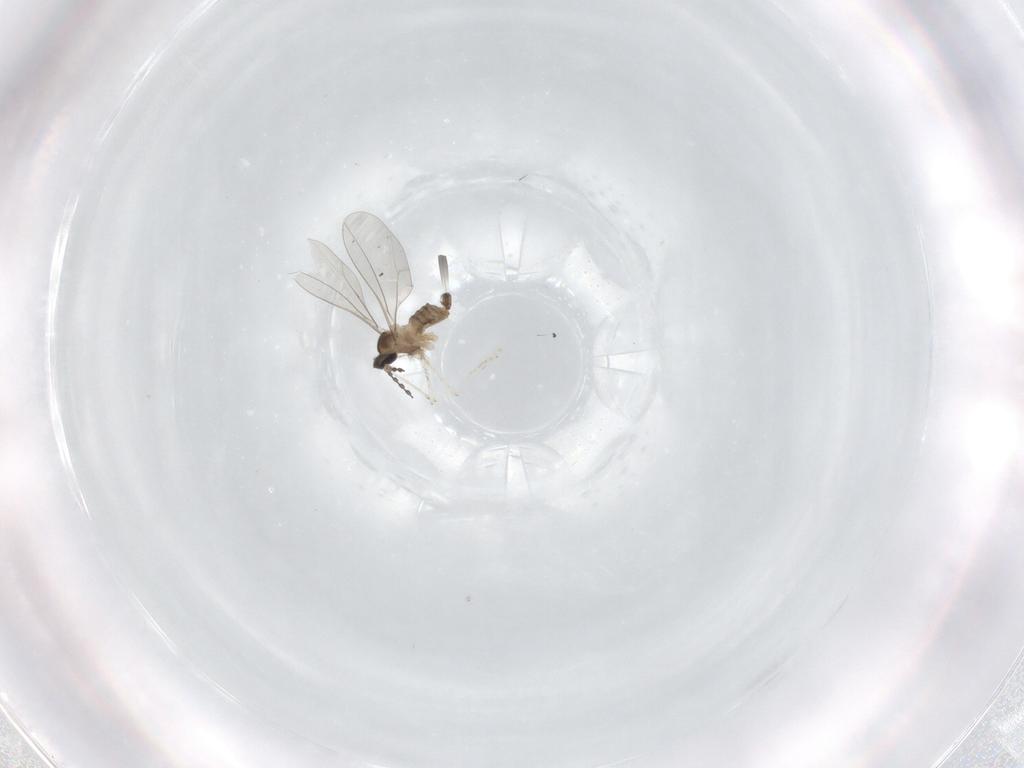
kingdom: Animalia
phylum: Arthropoda
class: Insecta
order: Diptera
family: Cecidomyiidae
